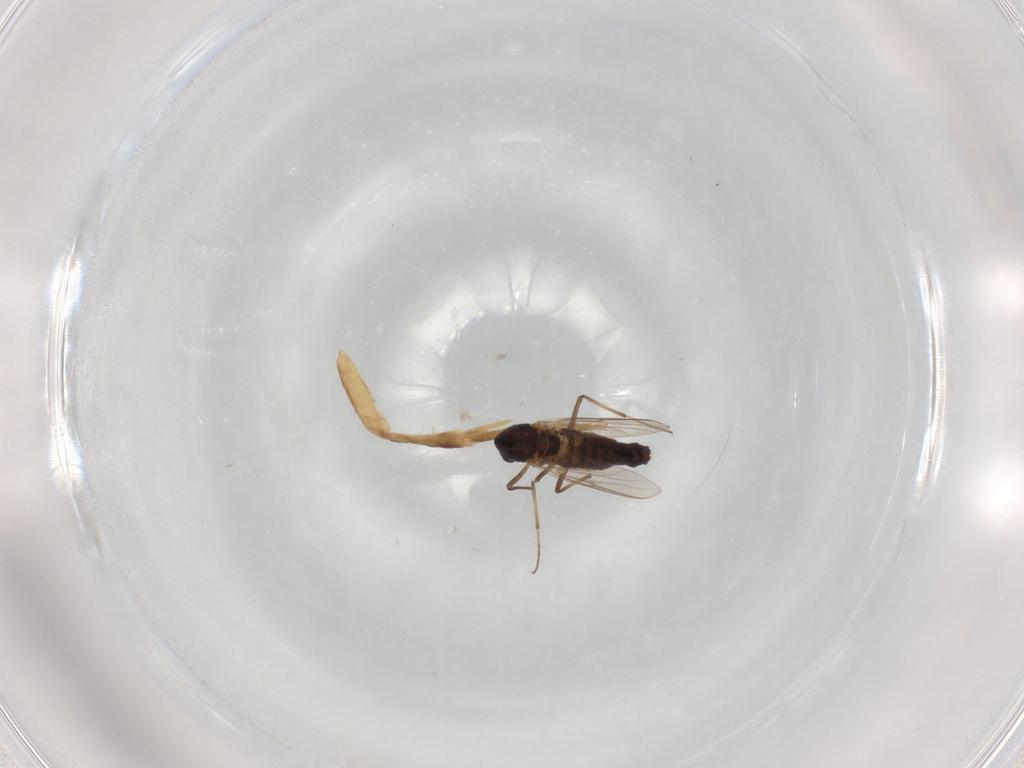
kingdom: Animalia
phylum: Arthropoda
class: Insecta
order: Diptera
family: Chironomidae
